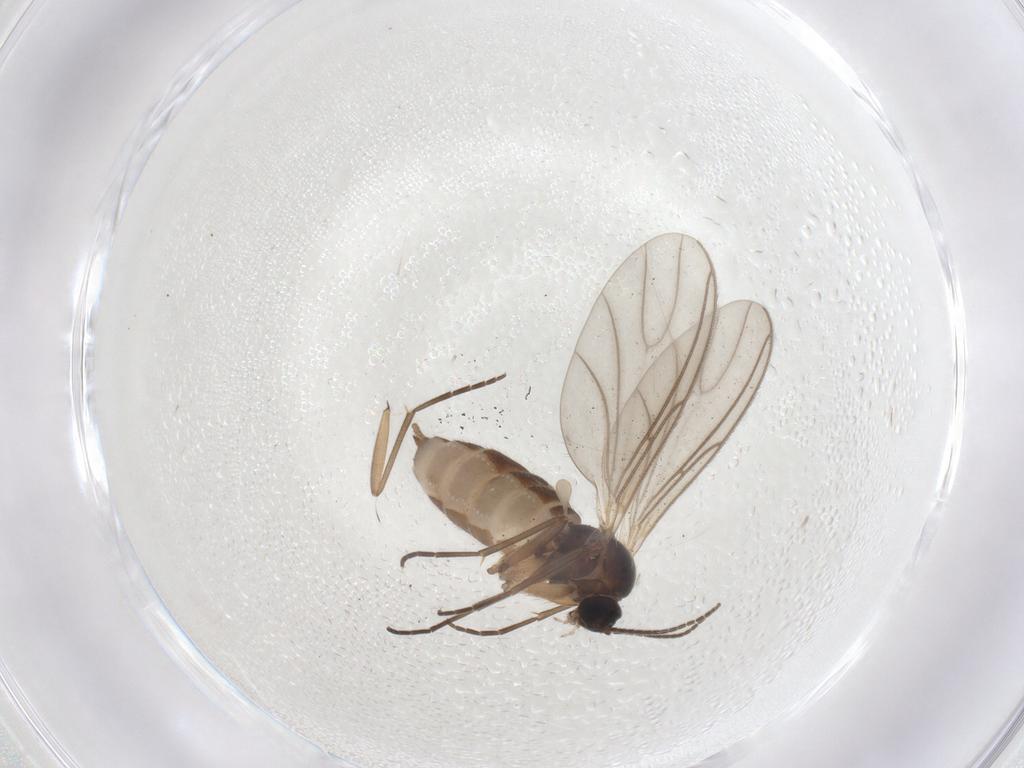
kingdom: Animalia
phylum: Arthropoda
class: Insecta
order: Diptera
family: Sciaridae
